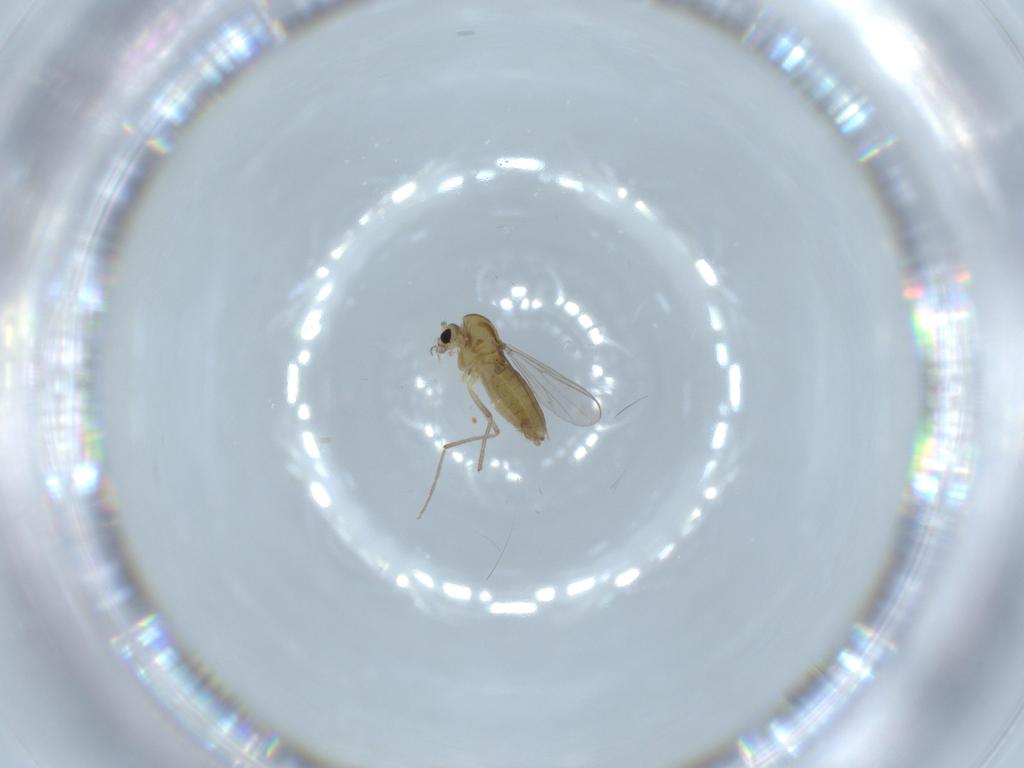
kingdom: Animalia
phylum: Arthropoda
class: Insecta
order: Diptera
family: Chironomidae
